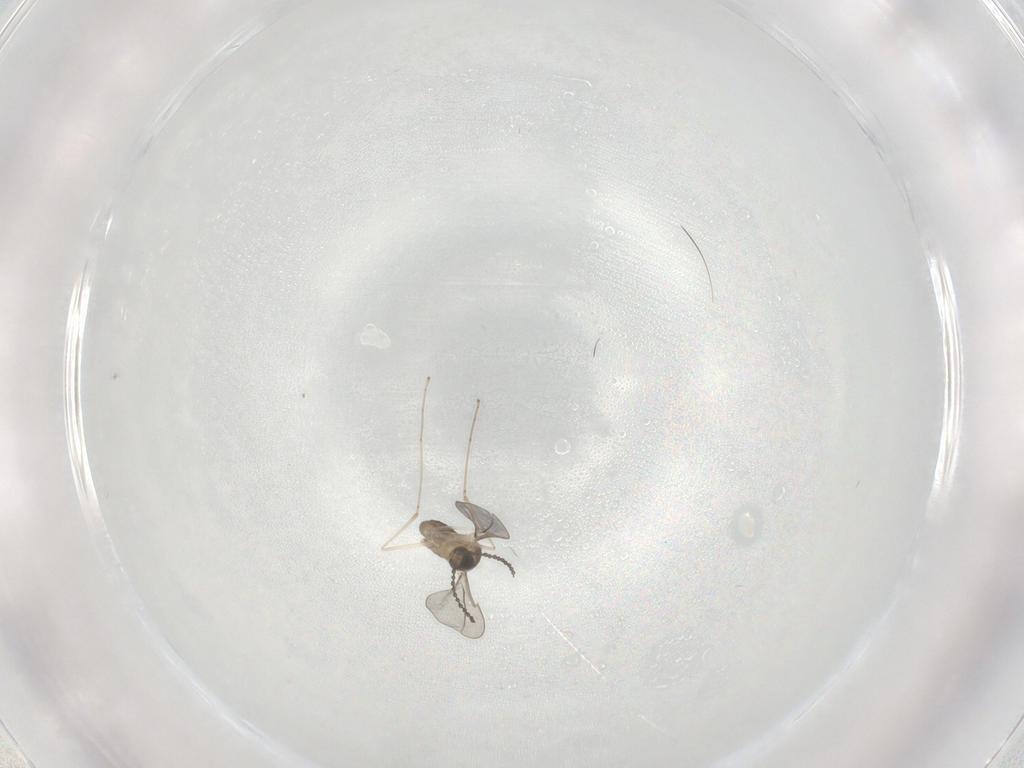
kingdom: Animalia
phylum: Arthropoda
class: Insecta
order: Diptera
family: Cecidomyiidae
